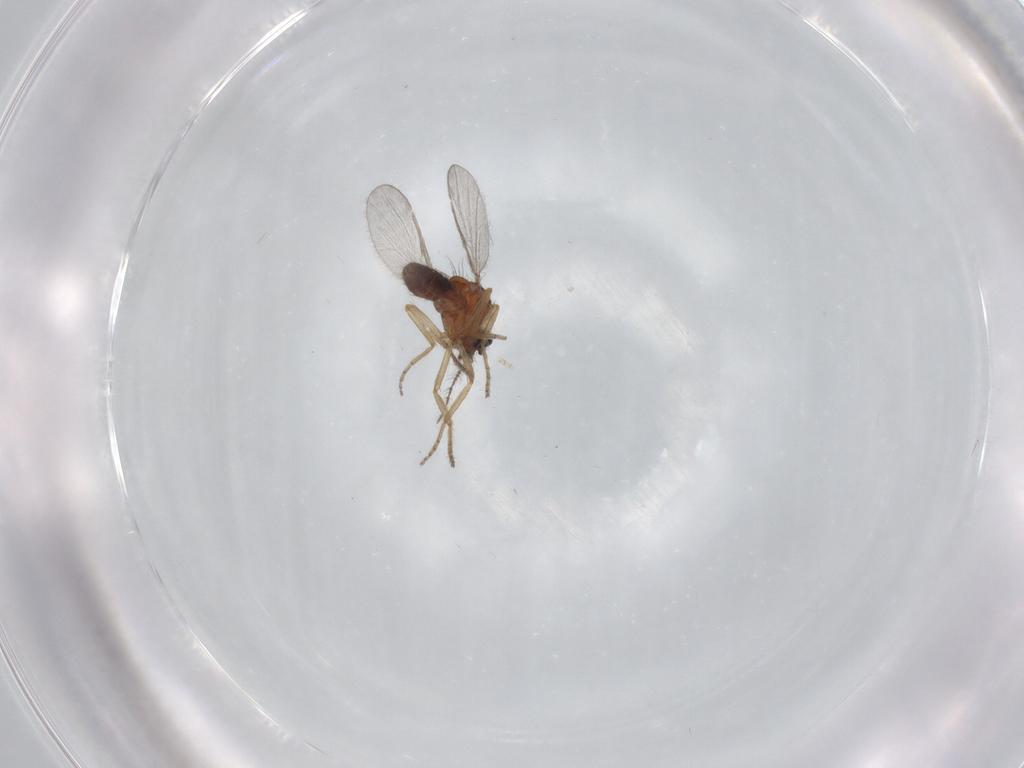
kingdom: Animalia
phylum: Arthropoda
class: Insecta
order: Diptera
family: Ceratopogonidae
